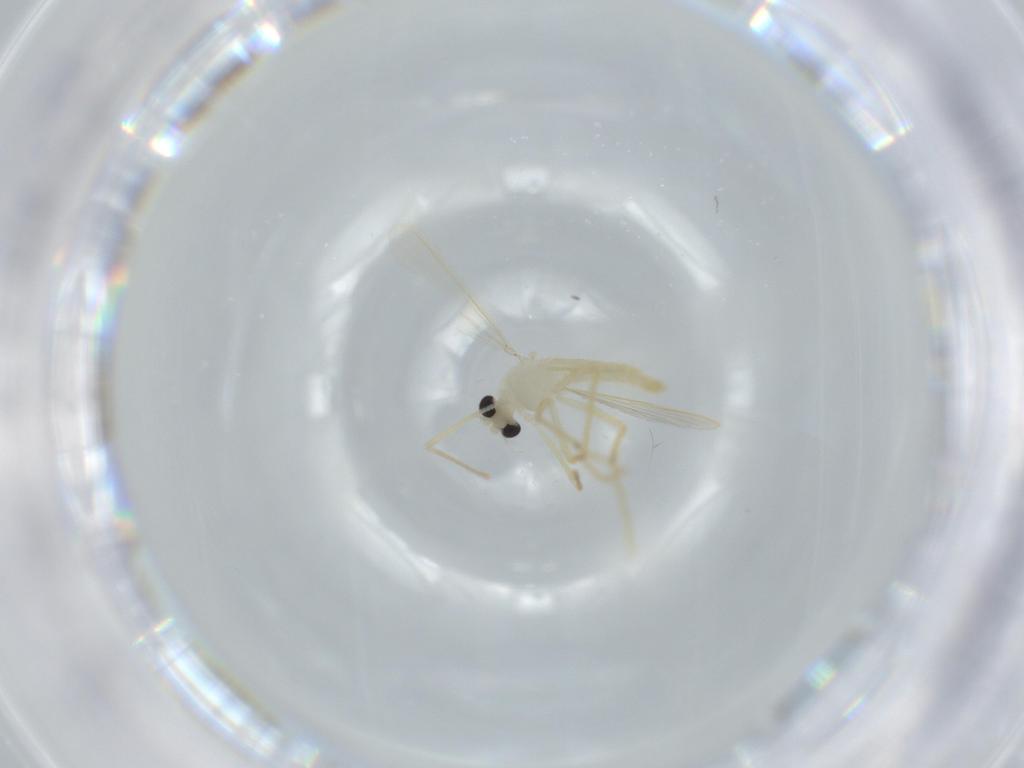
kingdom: Animalia
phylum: Arthropoda
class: Insecta
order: Diptera
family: Chironomidae
